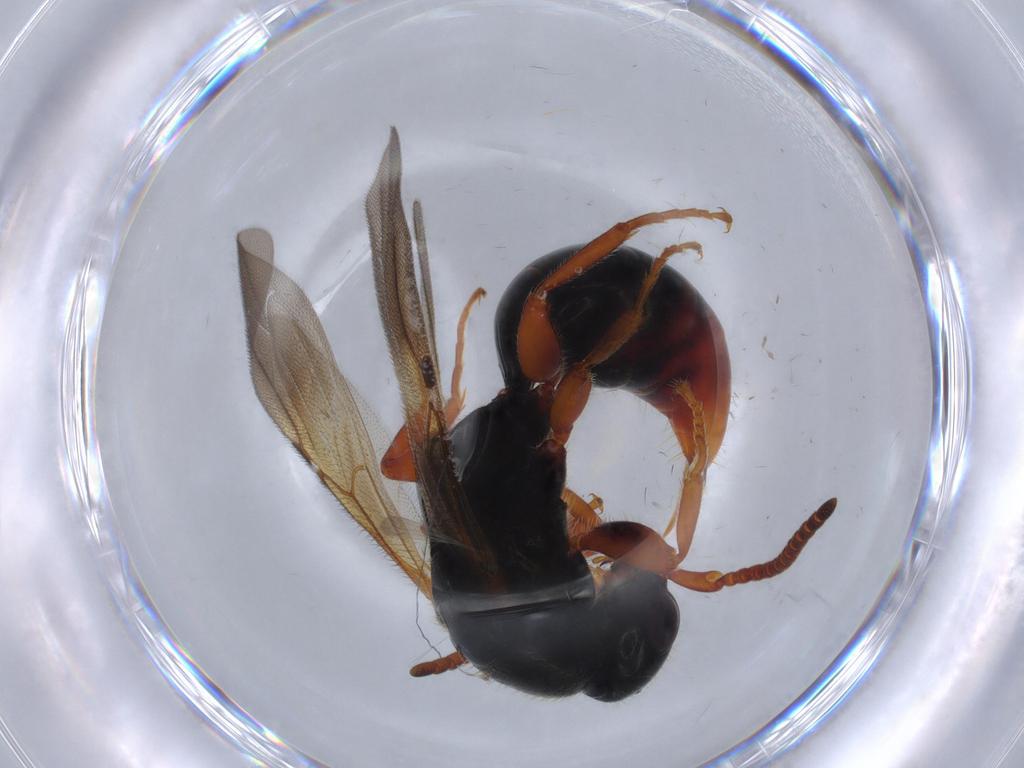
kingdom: Animalia
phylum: Arthropoda
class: Insecta
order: Hymenoptera
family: Bethylidae
